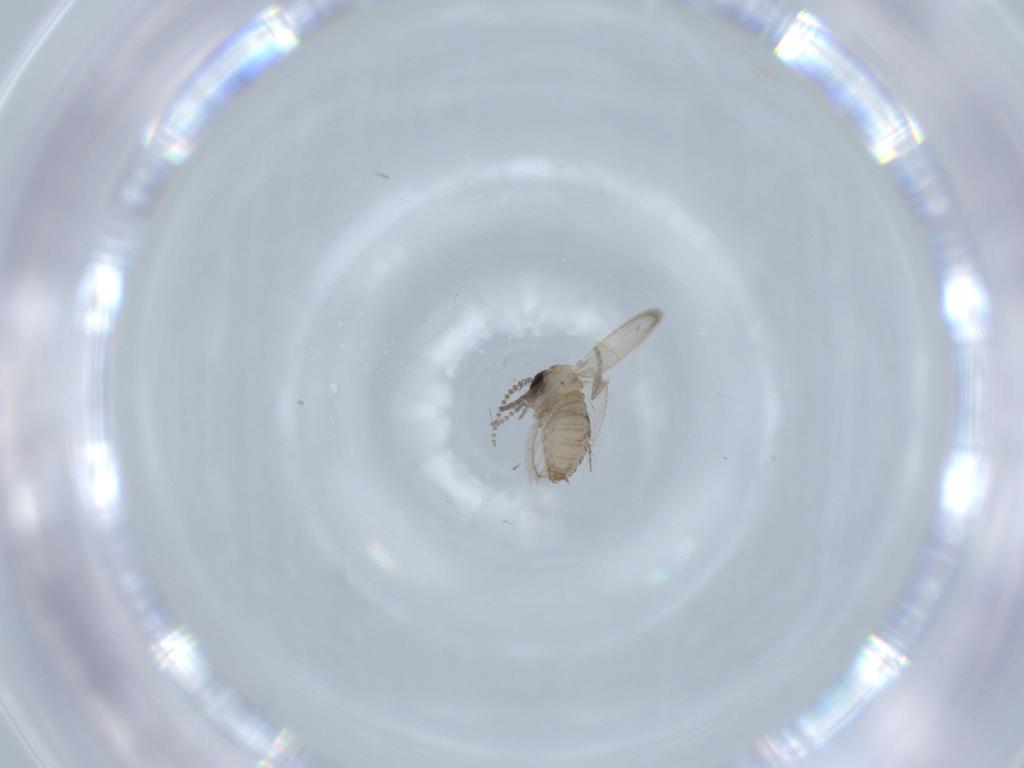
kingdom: Animalia
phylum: Arthropoda
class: Insecta
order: Diptera
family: Psychodidae
